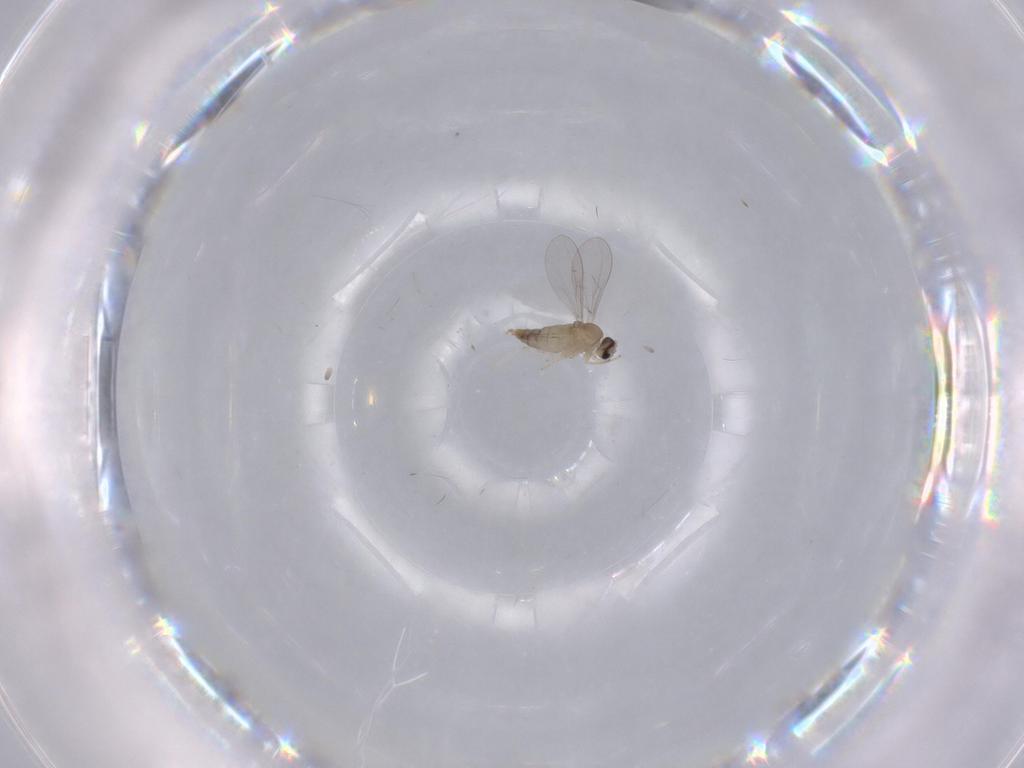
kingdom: Animalia
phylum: Arthropoda
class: Insecta
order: Diptera
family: Cecidomyiidae
